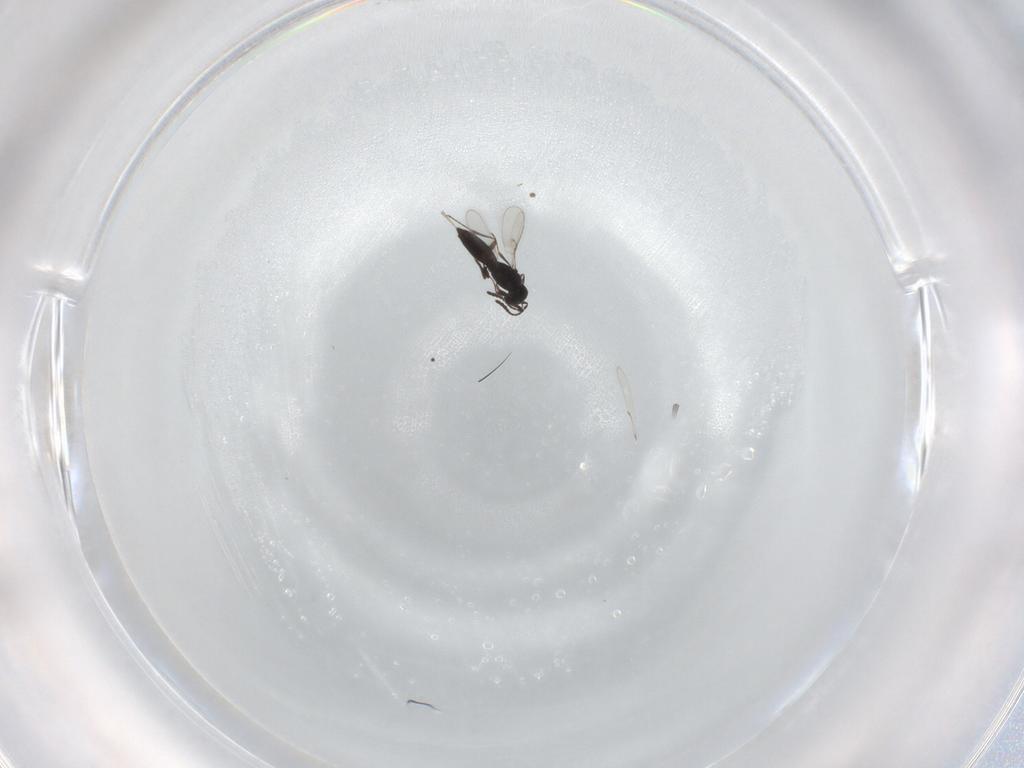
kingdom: Animalia
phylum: Arthropoda
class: Insecta
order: Hymenoptera
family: Scelionidae
